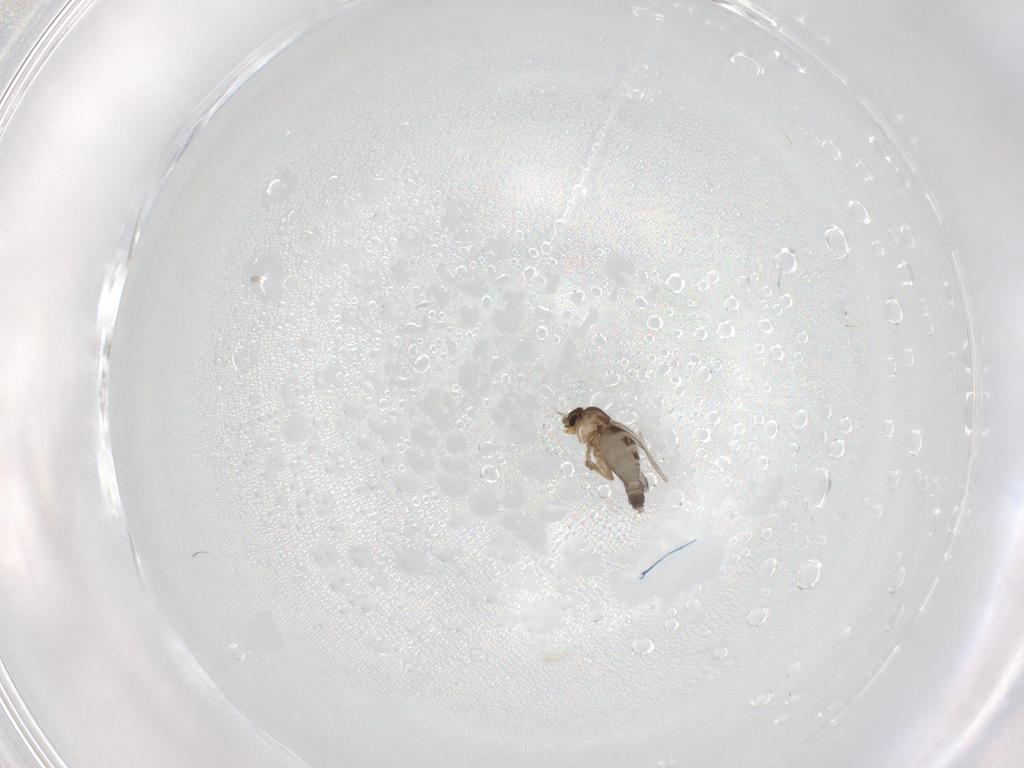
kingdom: Animalia
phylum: Arthropoda
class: Insecta
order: Diptera
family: Phoridae
